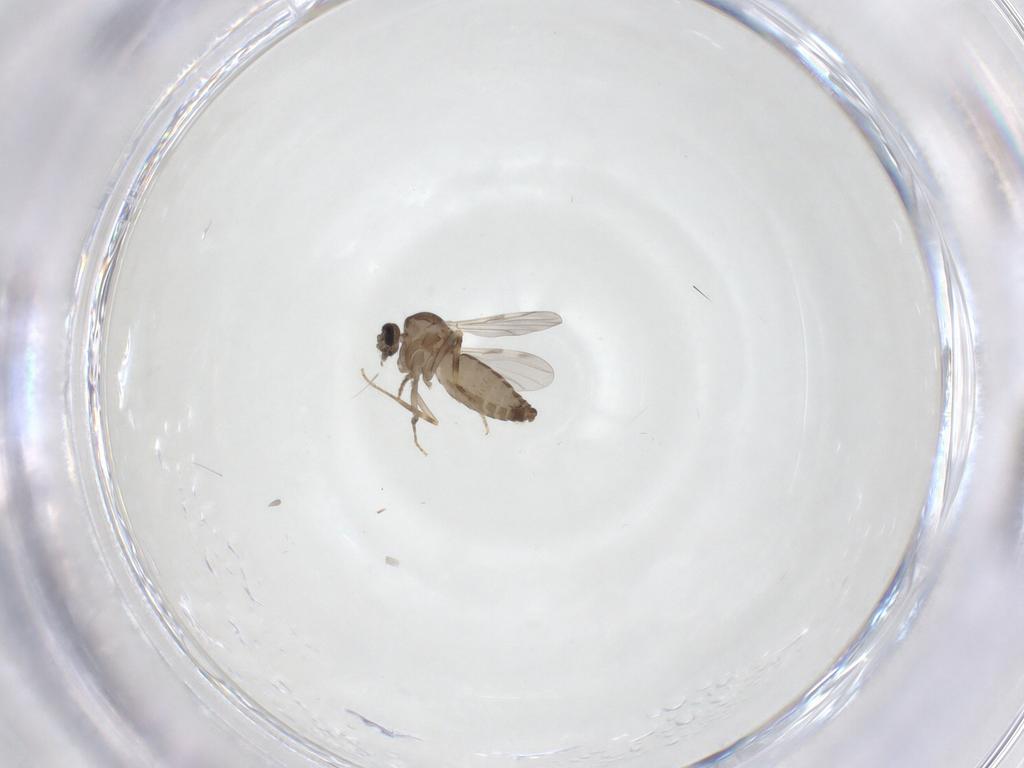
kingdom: Animalia
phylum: Arthropoda
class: Insecta
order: Diptera
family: Ceratopogonidae
